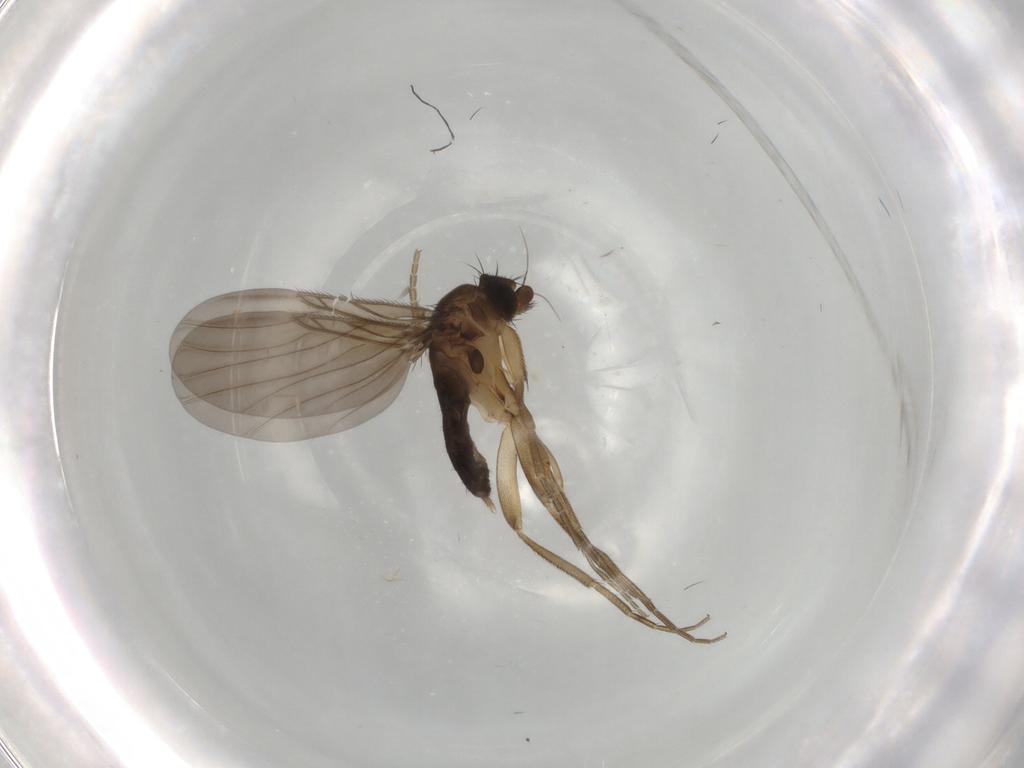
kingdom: Animalia
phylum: Arthropoda
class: Insecta
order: Diptera
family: Phoridae
